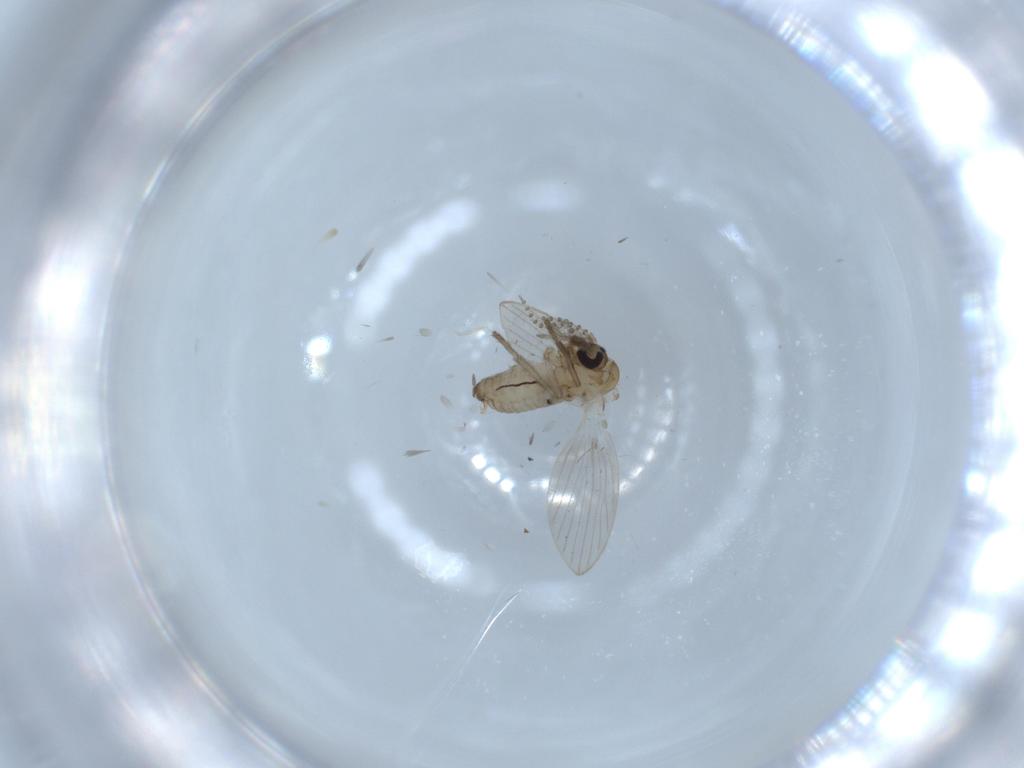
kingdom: Animalia
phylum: Arthropoda
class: Insecta
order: Diptera
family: Psychodidae
